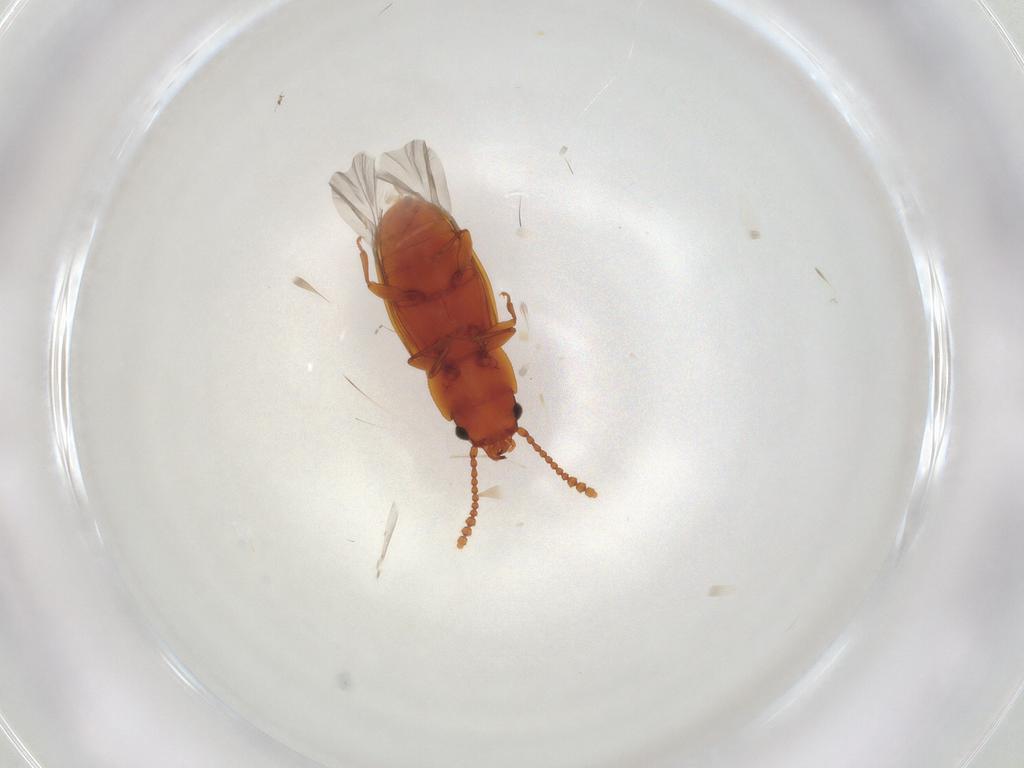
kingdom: Animalia
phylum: Arthropoda
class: Insecta
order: Coleoptera
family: Laemophloeidae
